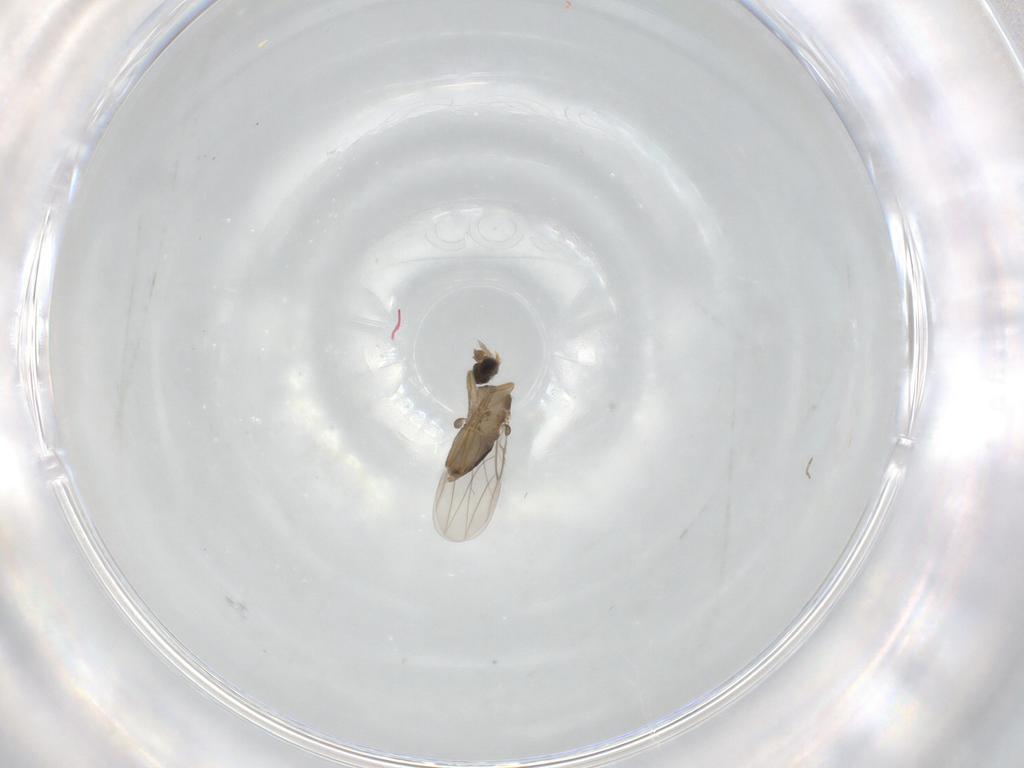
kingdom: Animalia
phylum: Arthropoda
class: Insecta
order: Diptera
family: Phoridae
